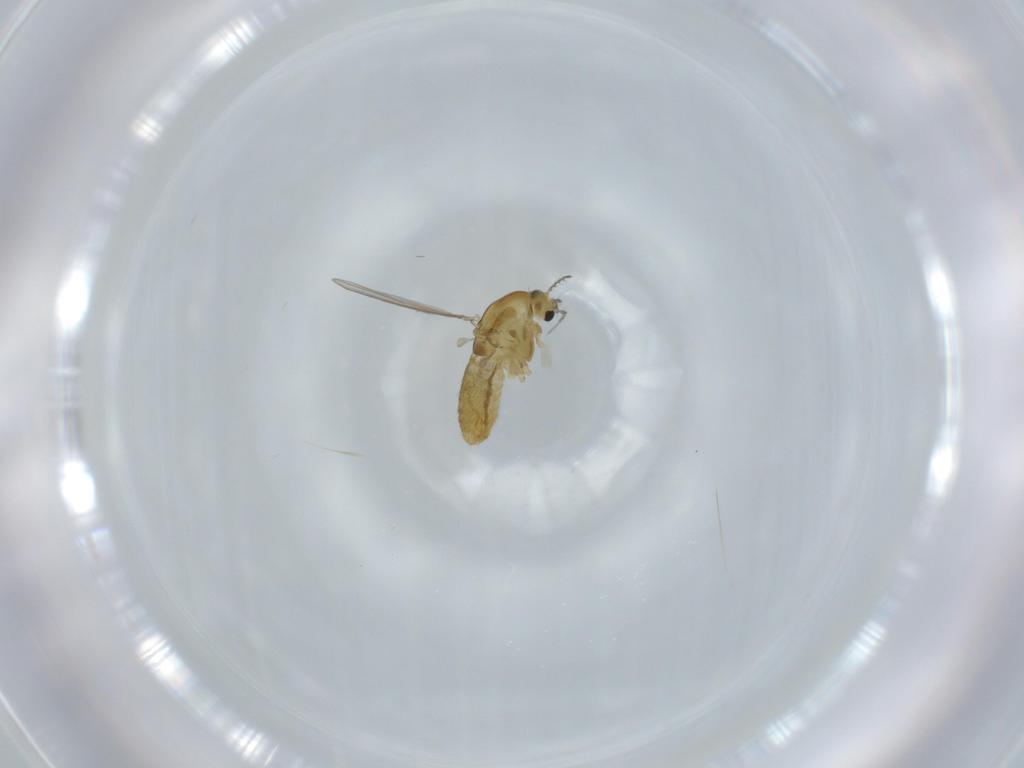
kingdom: Animalia
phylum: Arthropoda
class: Insecta
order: Diptera
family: Chironomidae
